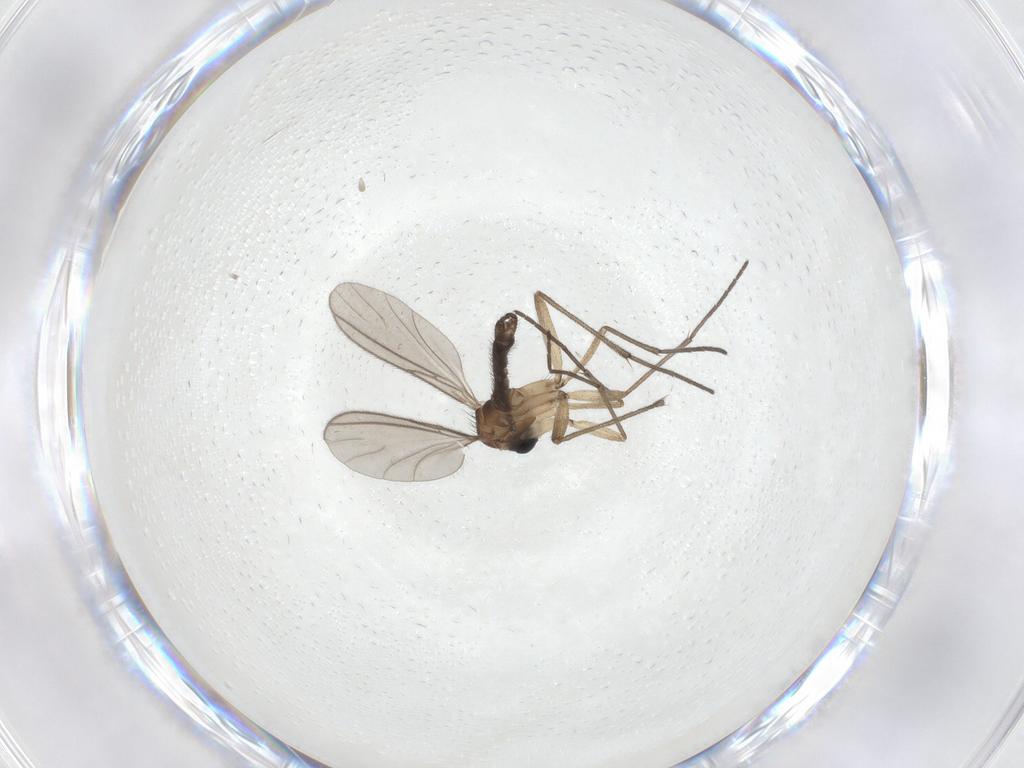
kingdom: Animalia
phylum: Arthropoda
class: Insecta
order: Diptera
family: Sciaridae
